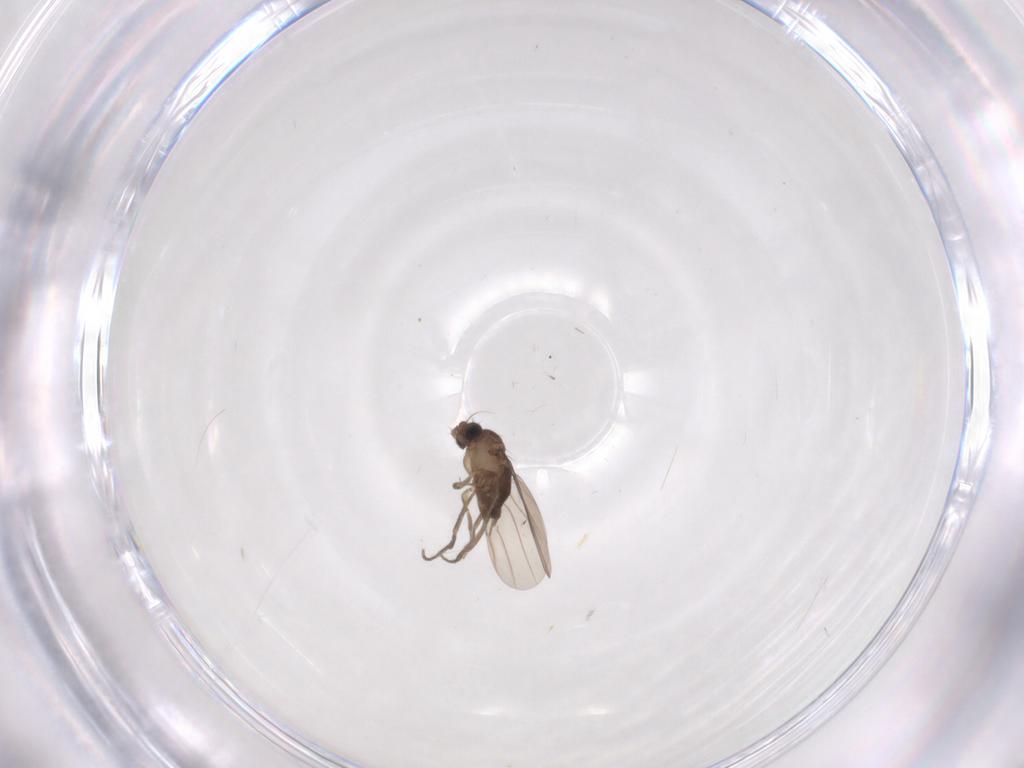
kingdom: Animalia
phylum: Arthropoda
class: Insecta
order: Diptera
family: Phoridae
